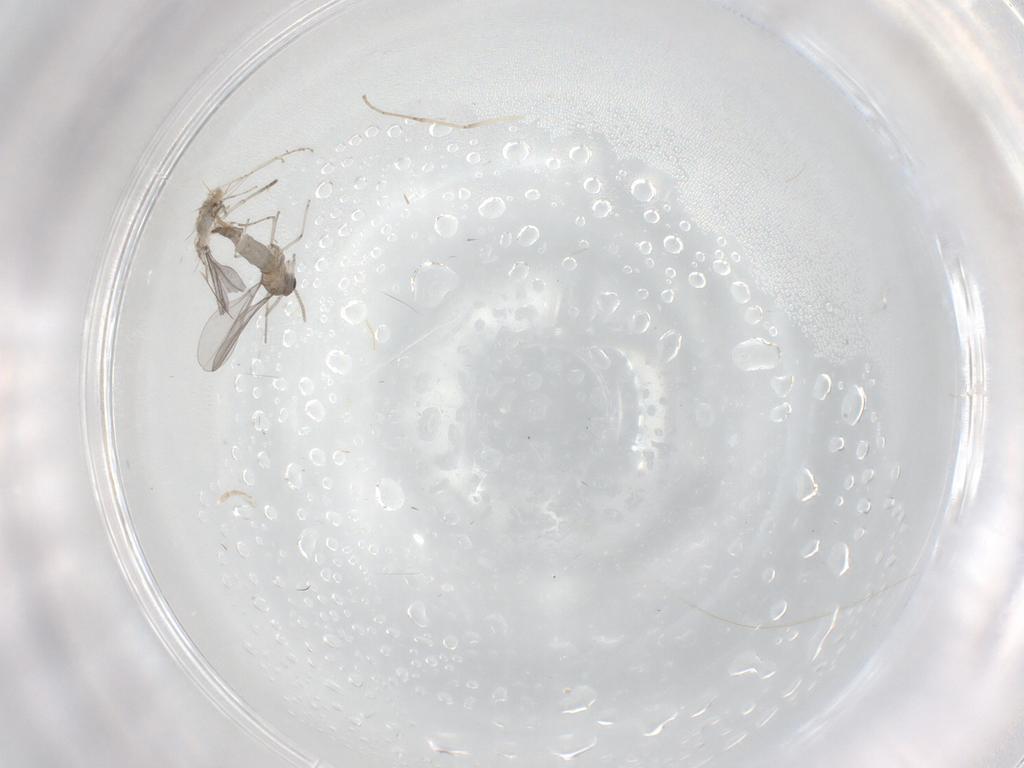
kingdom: Animalia
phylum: Arthropoda
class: Insecta
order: Diptera
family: Cecidomyiidae
